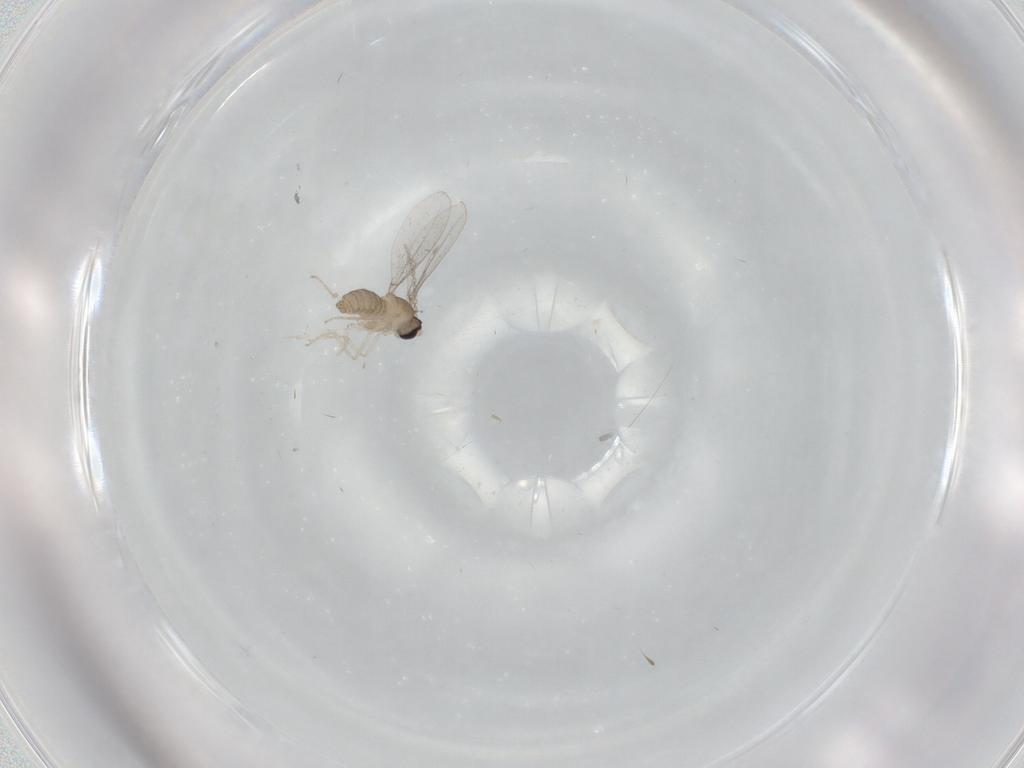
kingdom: Animalia
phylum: Arthropoda
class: Insecta
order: Diptera
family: Cecidomyiidae
